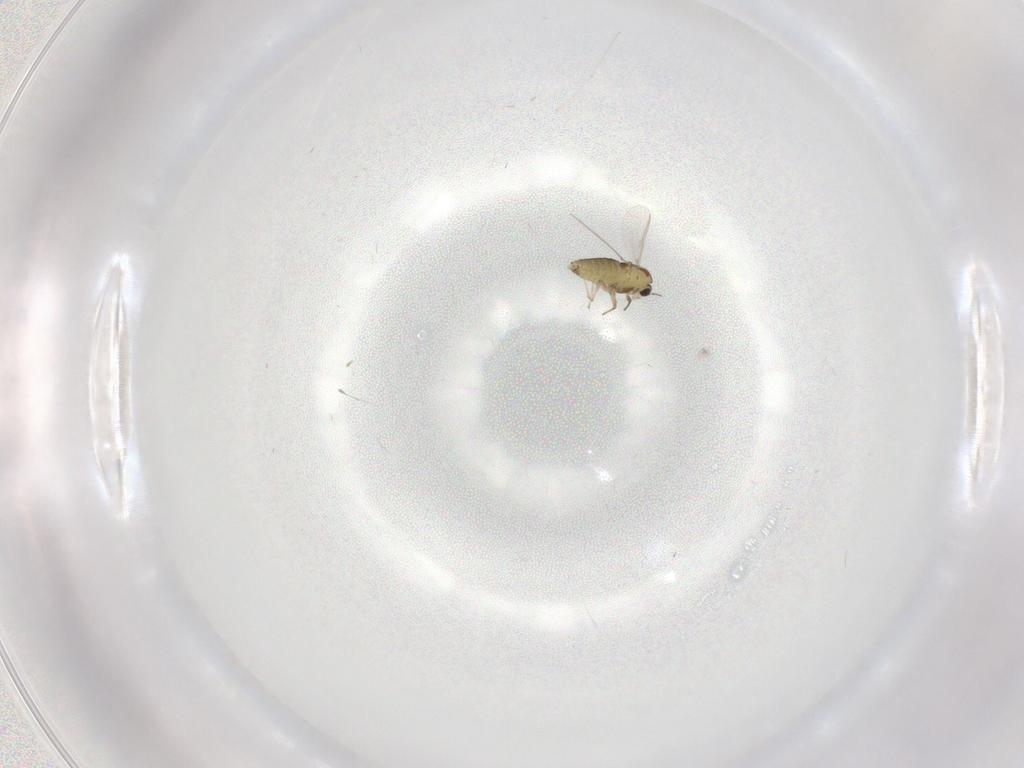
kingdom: Animalia
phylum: Arthropoda
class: Insecta
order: Diptera
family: Chironomidae
